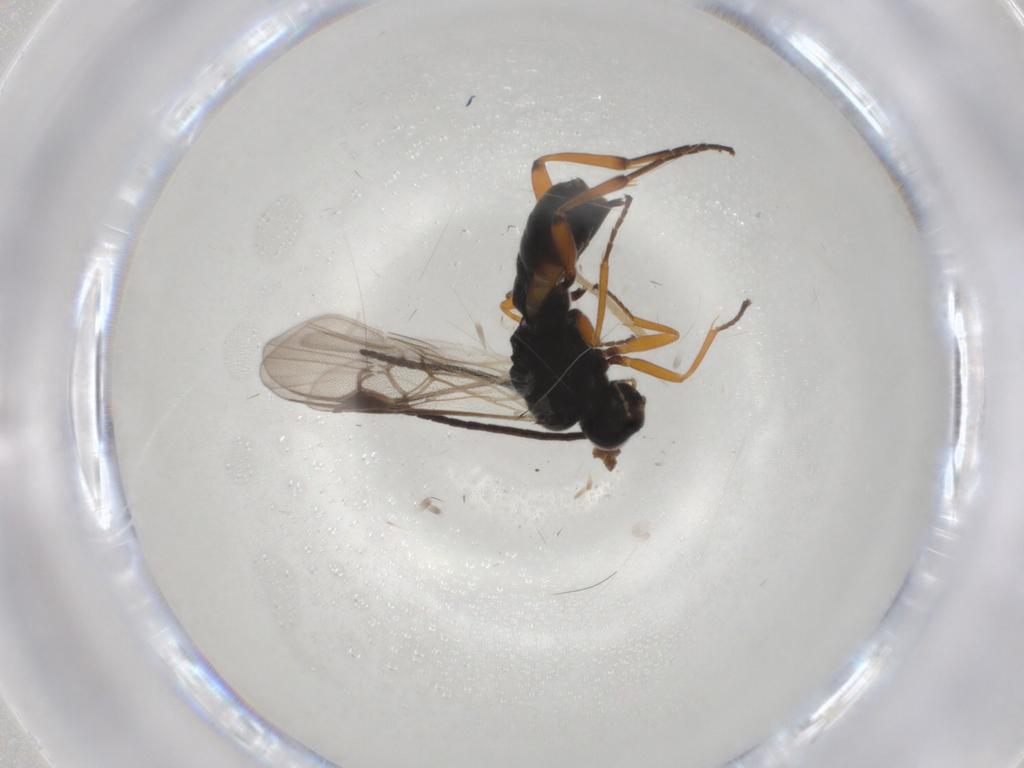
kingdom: Animalia
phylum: Arthropoda
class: Insecta
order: Hymenoptera
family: Braconidae
